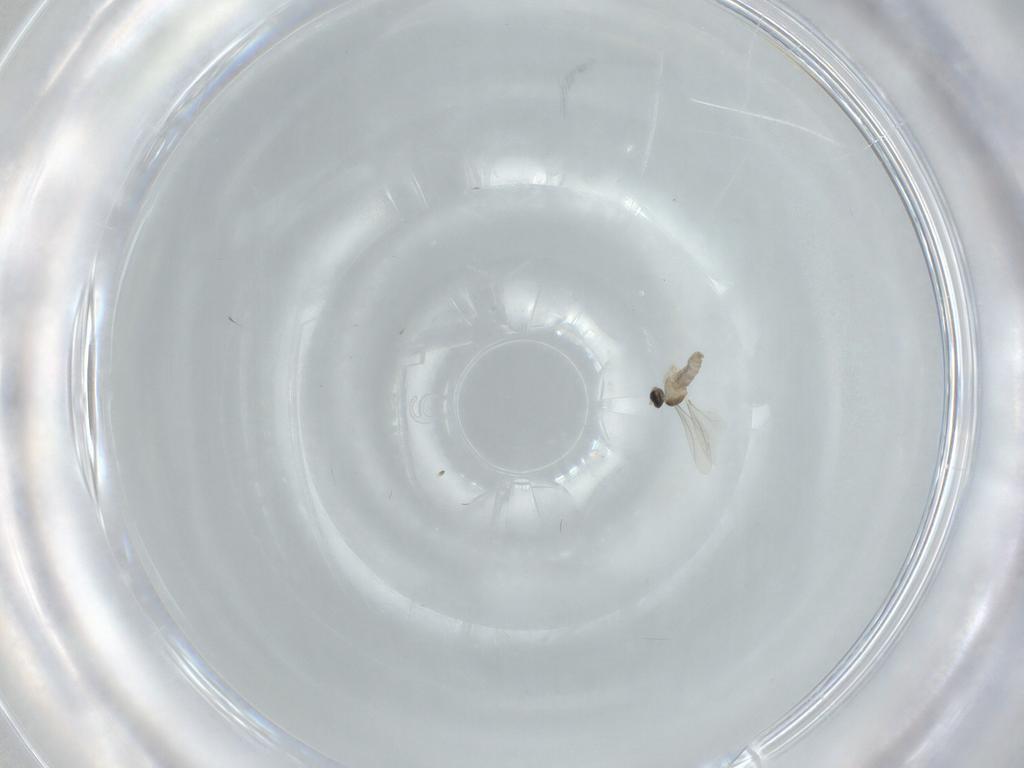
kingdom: Animalia
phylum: Arthropoda
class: Insecta
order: Diptera
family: Cecidomyiidae
